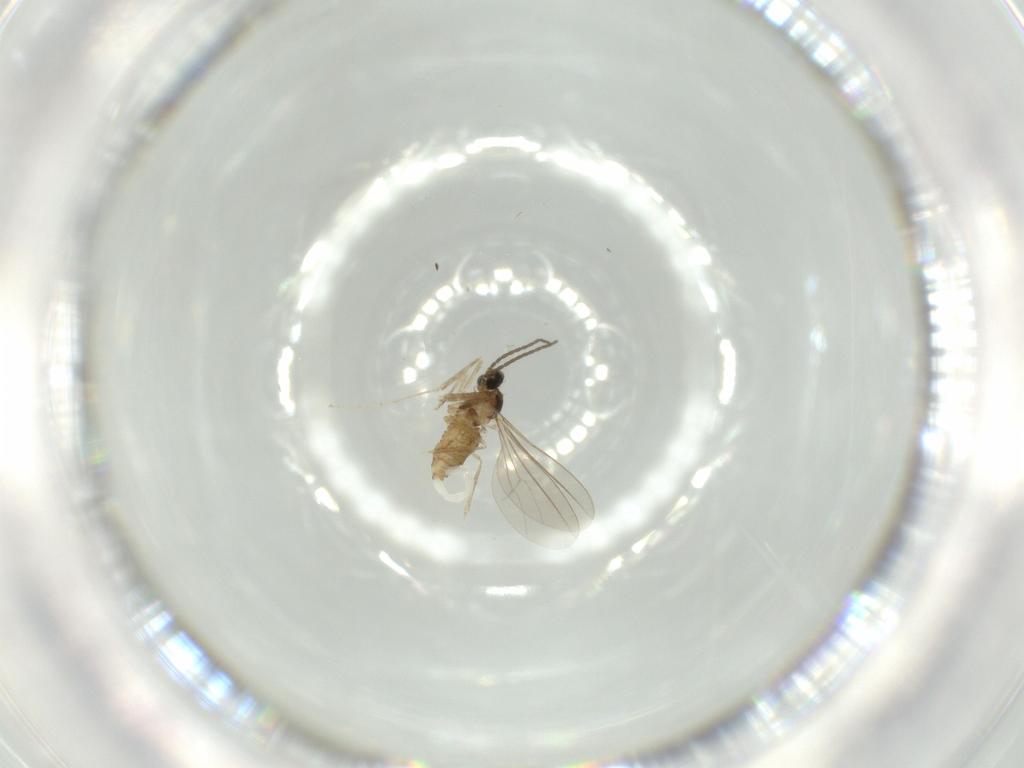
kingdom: Animalia
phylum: Arthropoda
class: Insecta
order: Diptera
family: Cecidomyiidae
